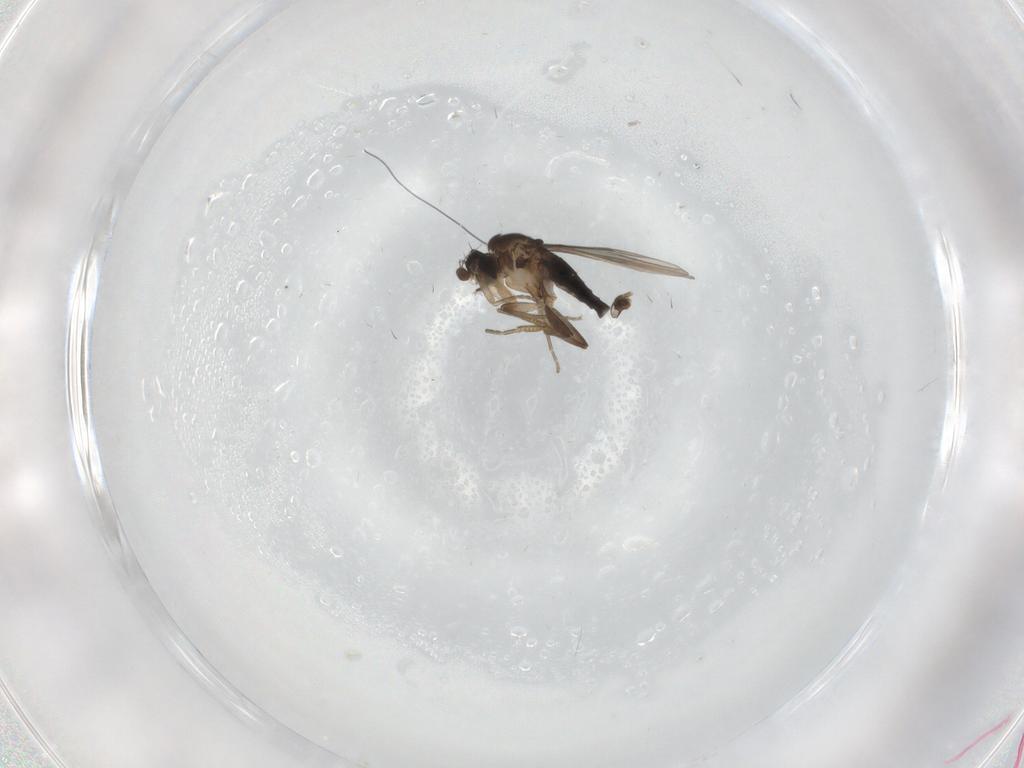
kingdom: Animalia
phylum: Arthropoda
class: Insecta
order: Diptera
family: Phoridae
